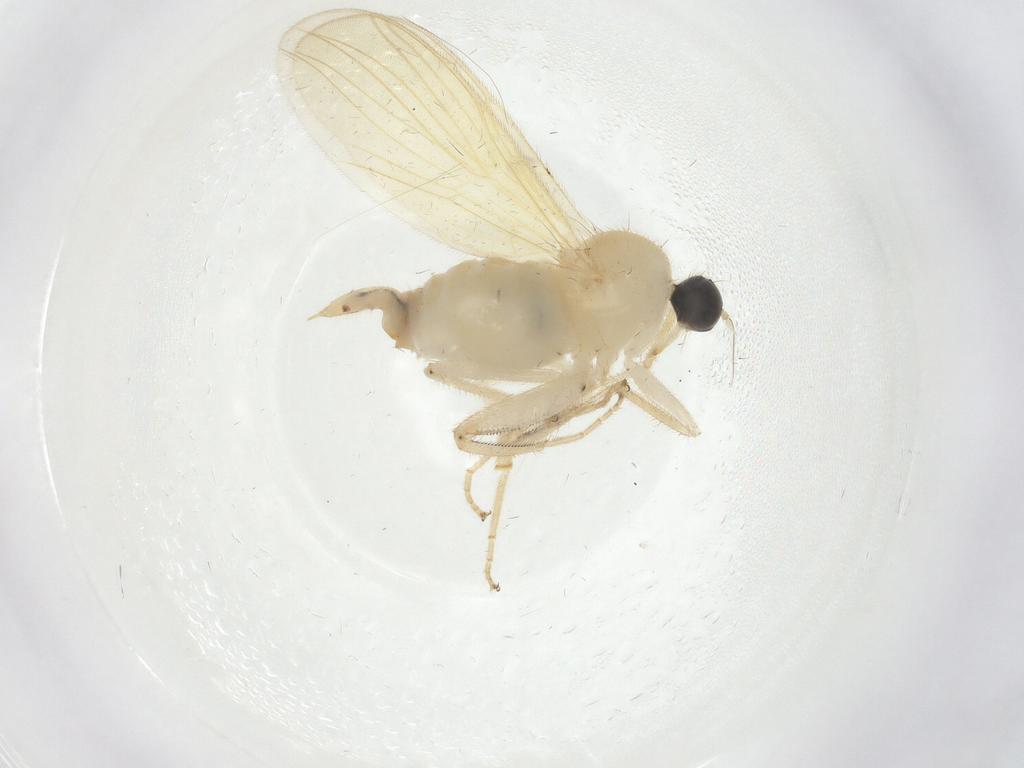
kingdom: Animalia
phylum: Arthropoda
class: Insecta
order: Diptera
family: Hybotidae
